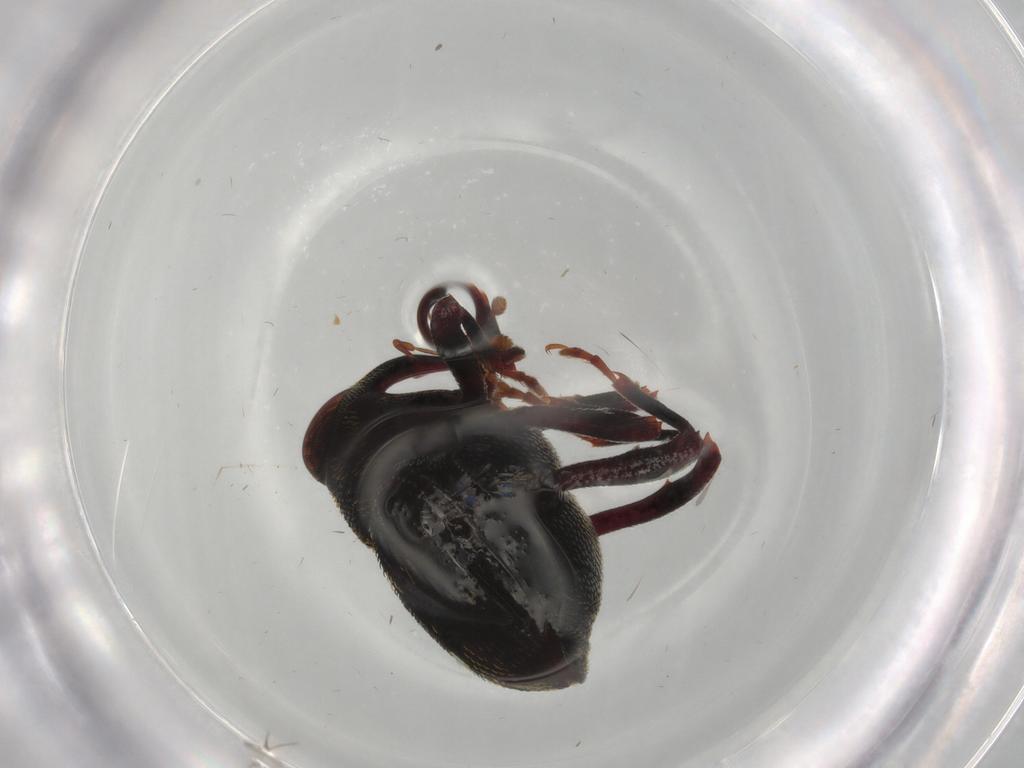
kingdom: Animalia
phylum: Arthropoda
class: Insecta
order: Coleoptera
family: Curculionidae
